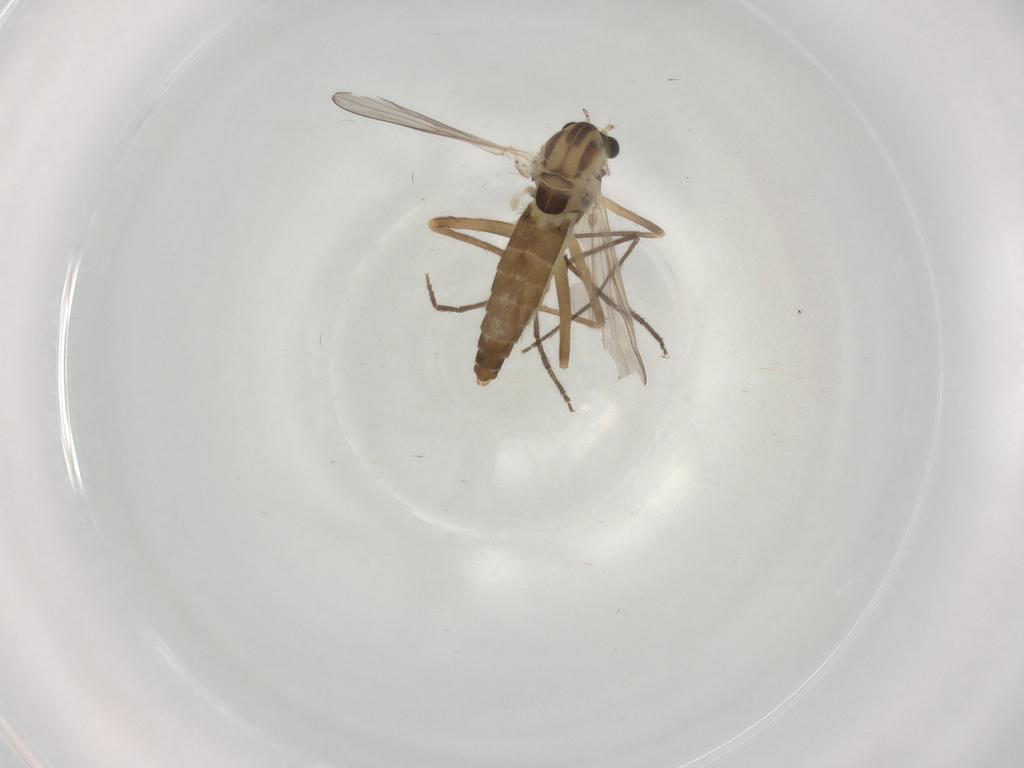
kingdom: Animalia
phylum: Arthropoda
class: Insecta
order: Diptera
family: Chironomidae
